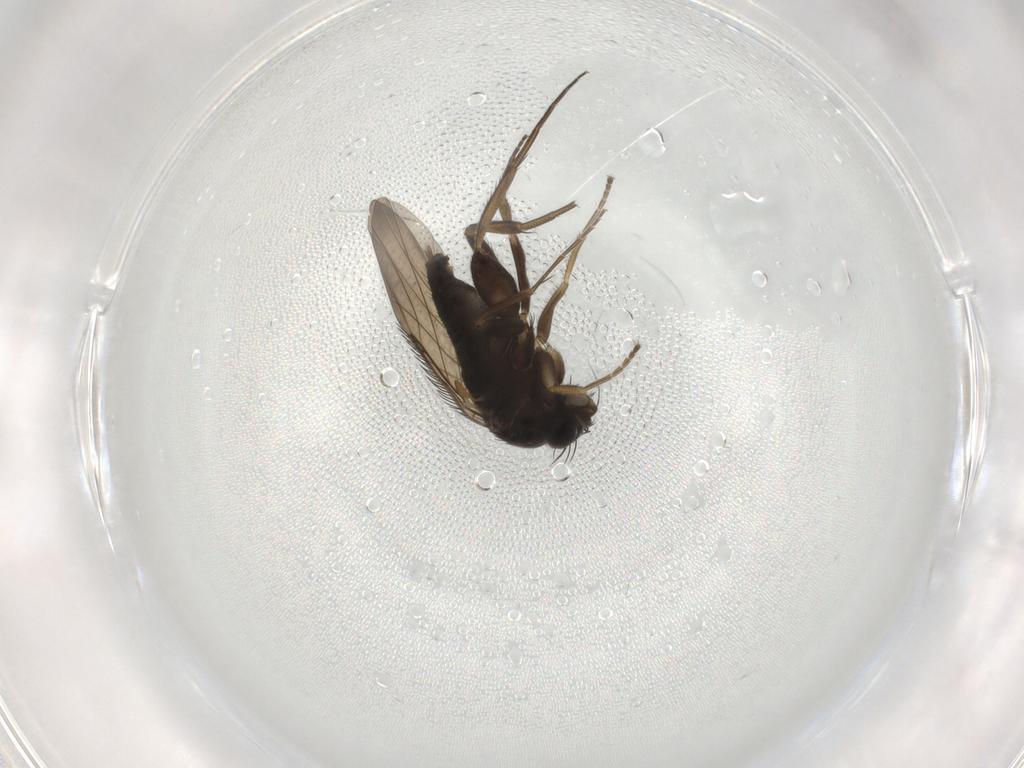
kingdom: Animalia
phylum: Arthropoda
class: Insecta
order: Diptera
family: Phoridae
